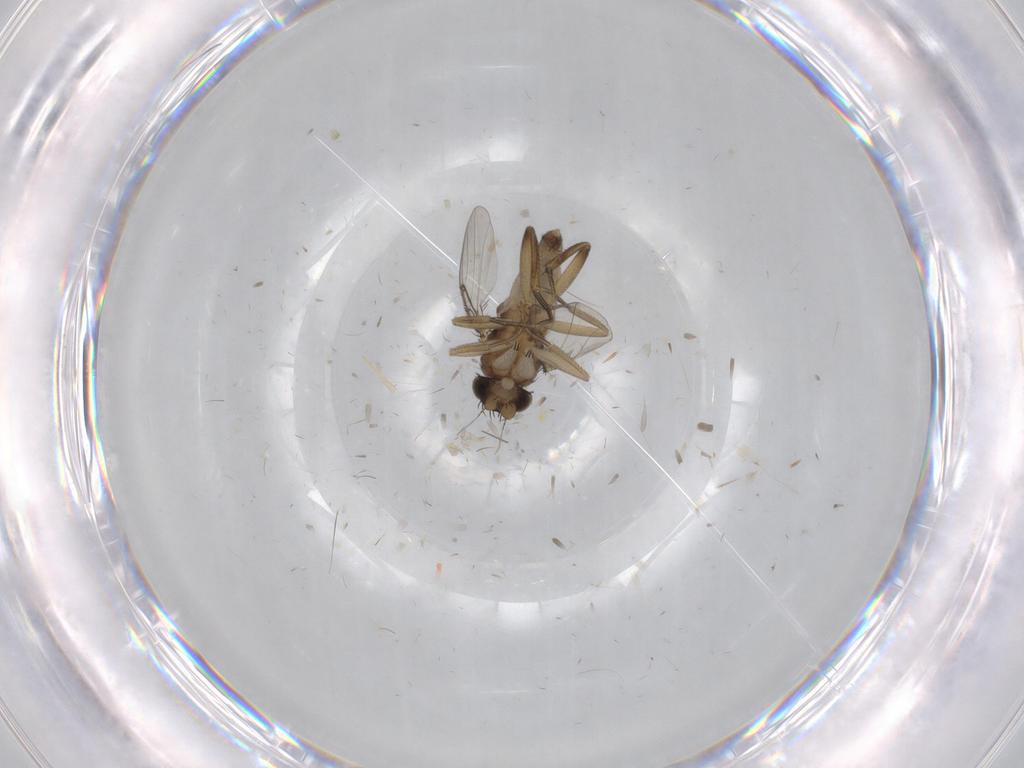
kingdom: Animalia
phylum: Arthropoda
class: Insecta
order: Diptera
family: Phoridae
